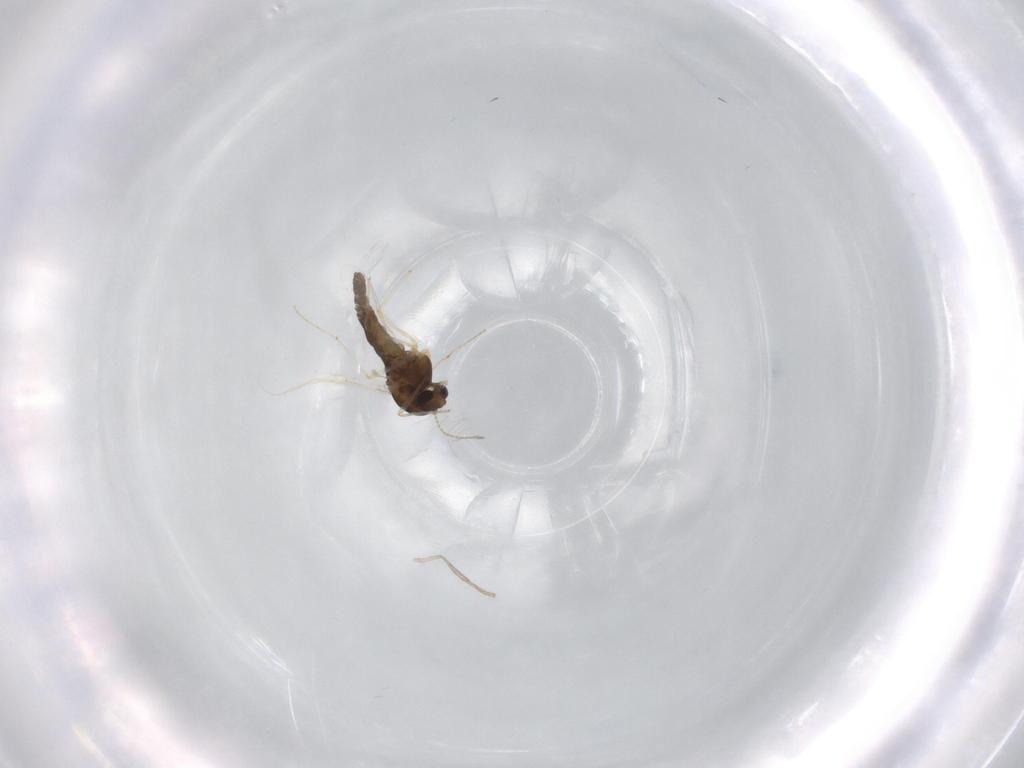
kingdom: Animalia
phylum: Arthropoda
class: Insecta
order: Diptera
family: Chironomidae
